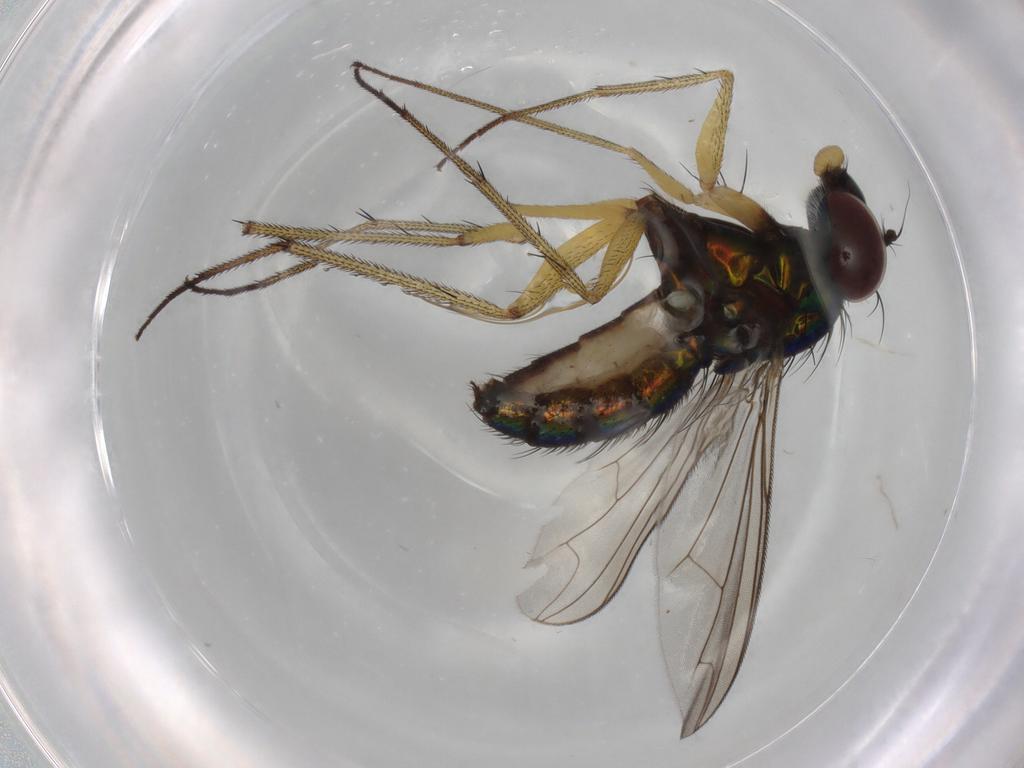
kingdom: Animalia
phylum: Arthropoda
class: Insecta
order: Diptera
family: Dolichopodidae
